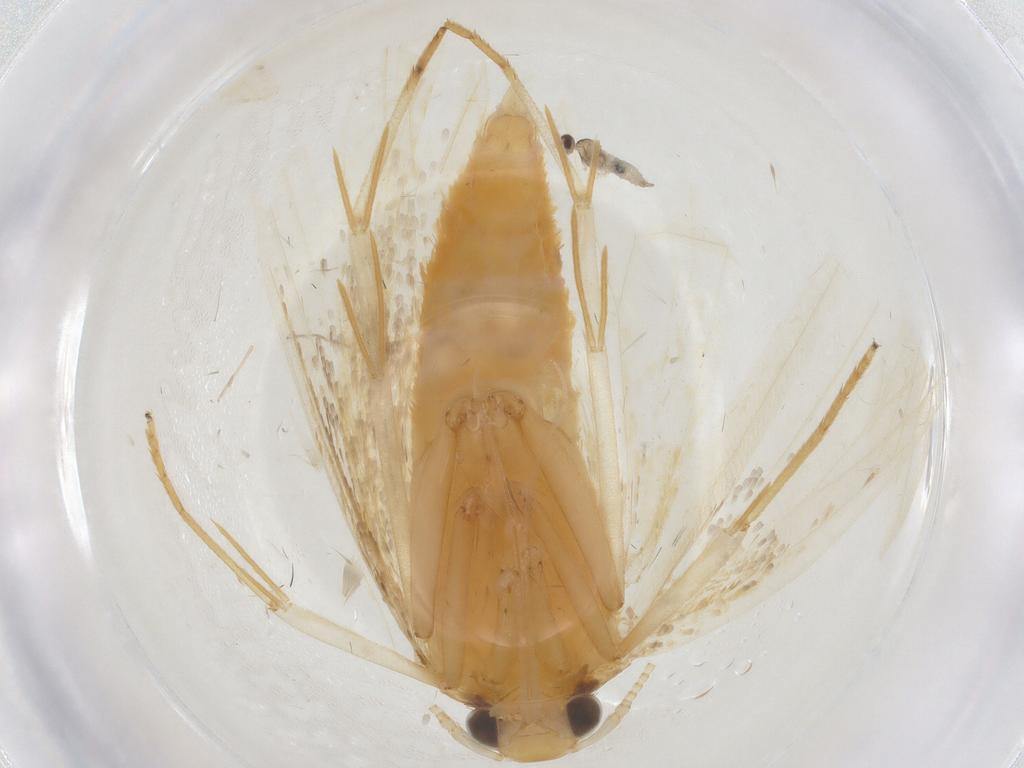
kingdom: Animalia
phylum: Arthropoda
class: Insecta
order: Lepidoptera
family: Lecithoceridae
